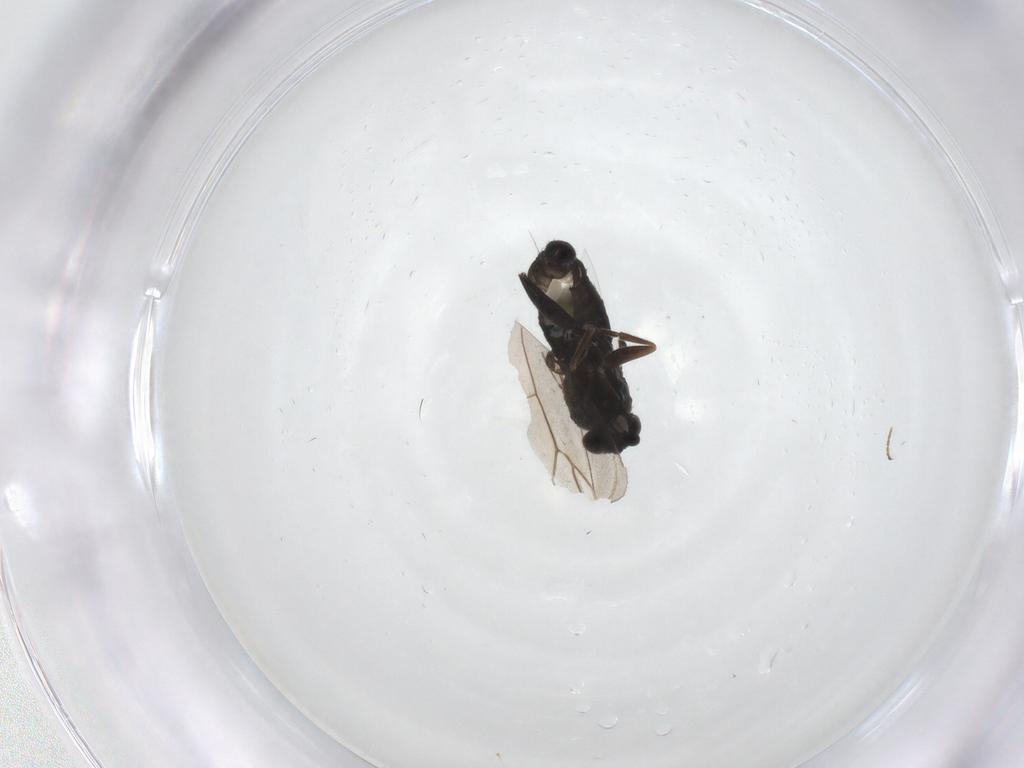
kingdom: Animalia
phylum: Arthropoda
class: Insecta
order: Diptera
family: Phoridae
